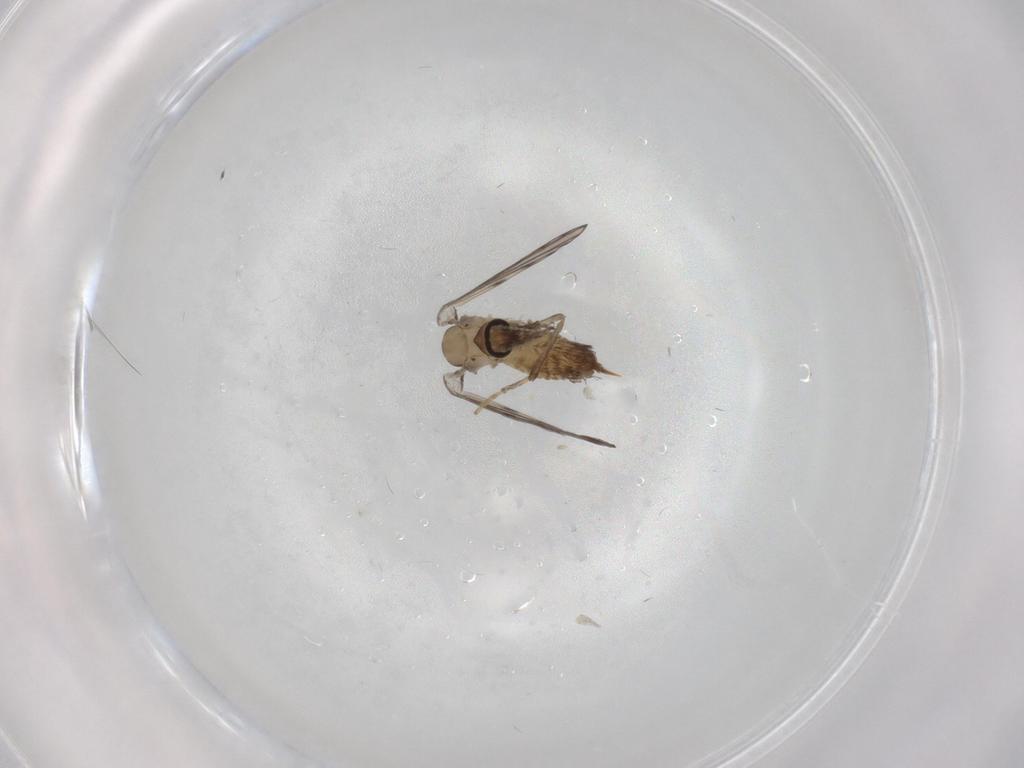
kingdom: Animalia
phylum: Arthropoda
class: Insecta
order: Diptera
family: Psychodidae
